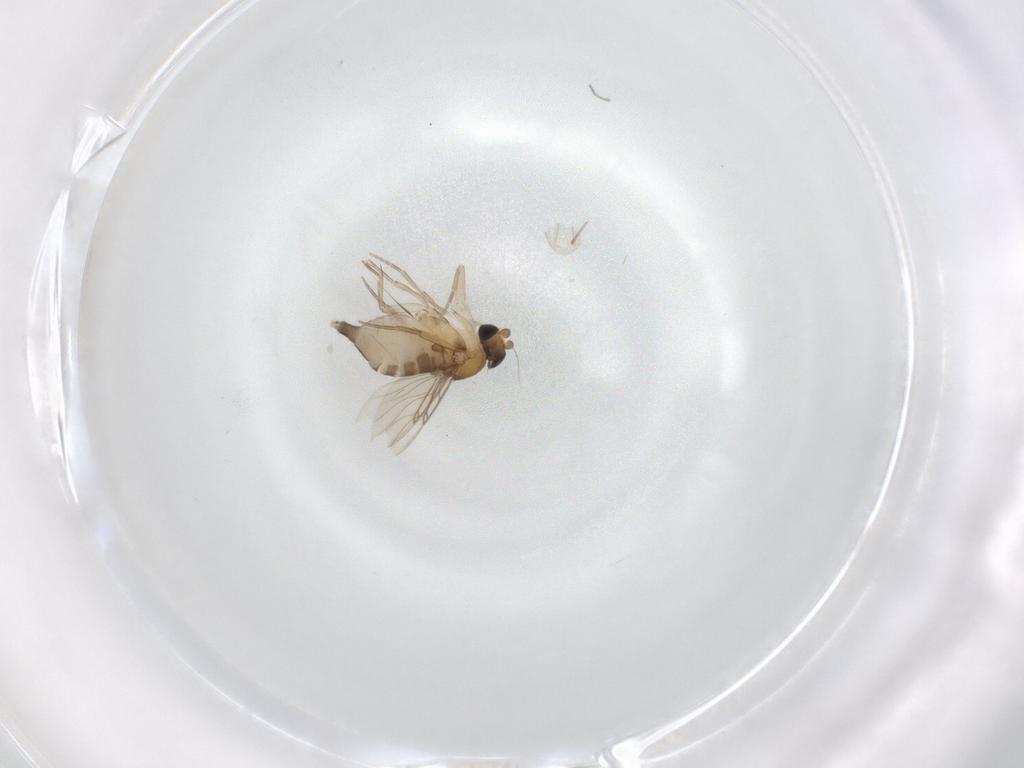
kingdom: Animalia
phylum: Arthropoda
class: Insecta
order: Diptera
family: Phoridae
